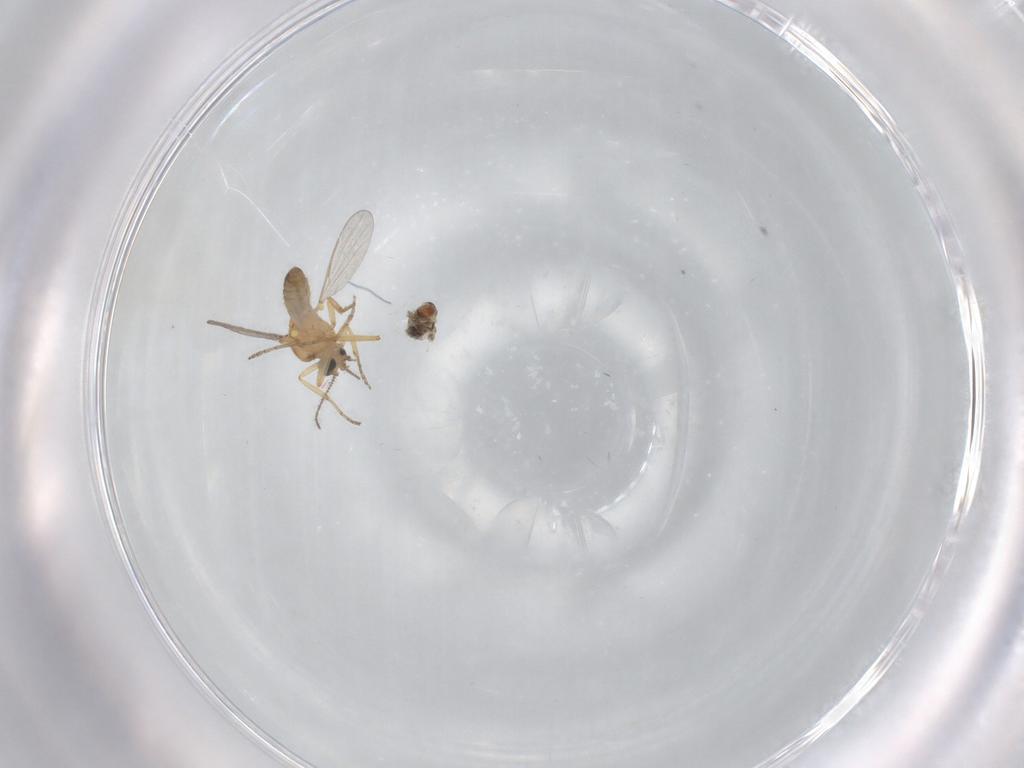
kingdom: Animalia
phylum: Arthropoda
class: Insecta
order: Diptera
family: Ceratopogonidae
